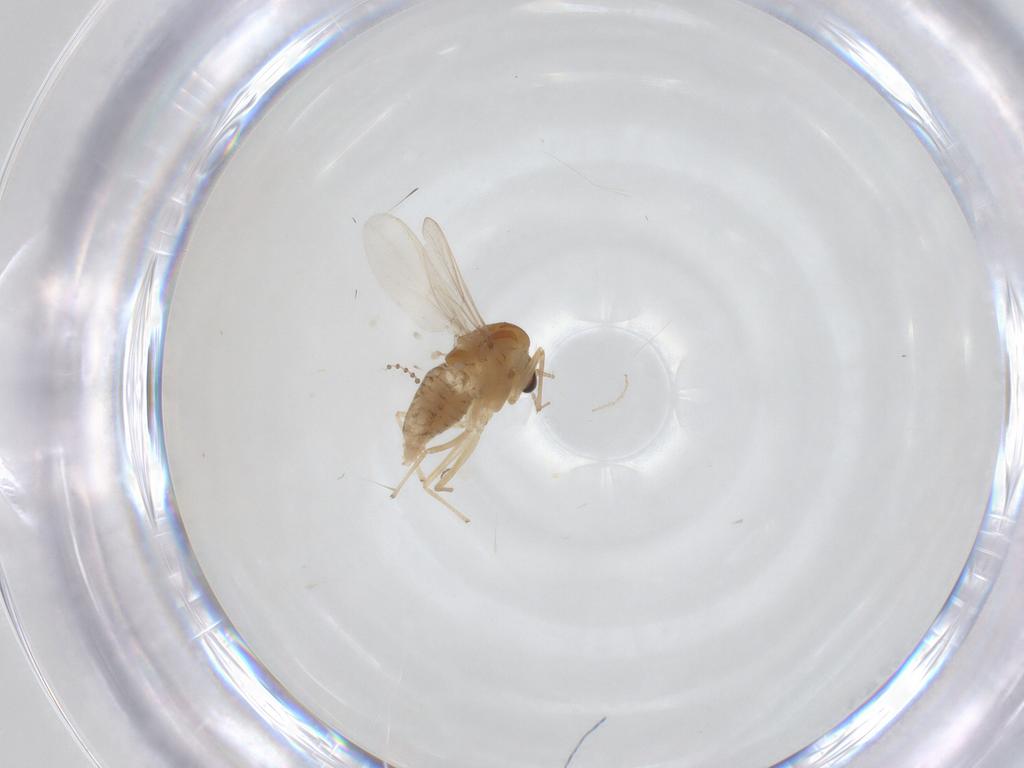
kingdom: Animalia
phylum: Arthropoda
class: Insecta
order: Diptera
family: Chironomidae
